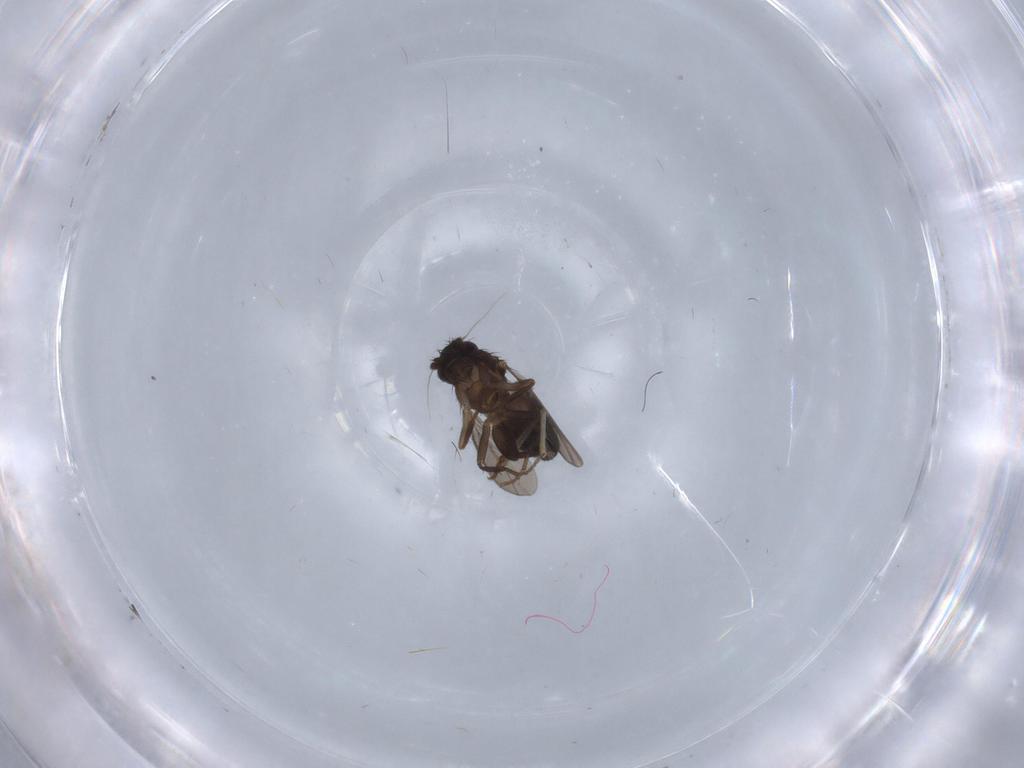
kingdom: Animalia
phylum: Arthropoda
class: Insecta
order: Diptera
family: Sphaeroceridae
